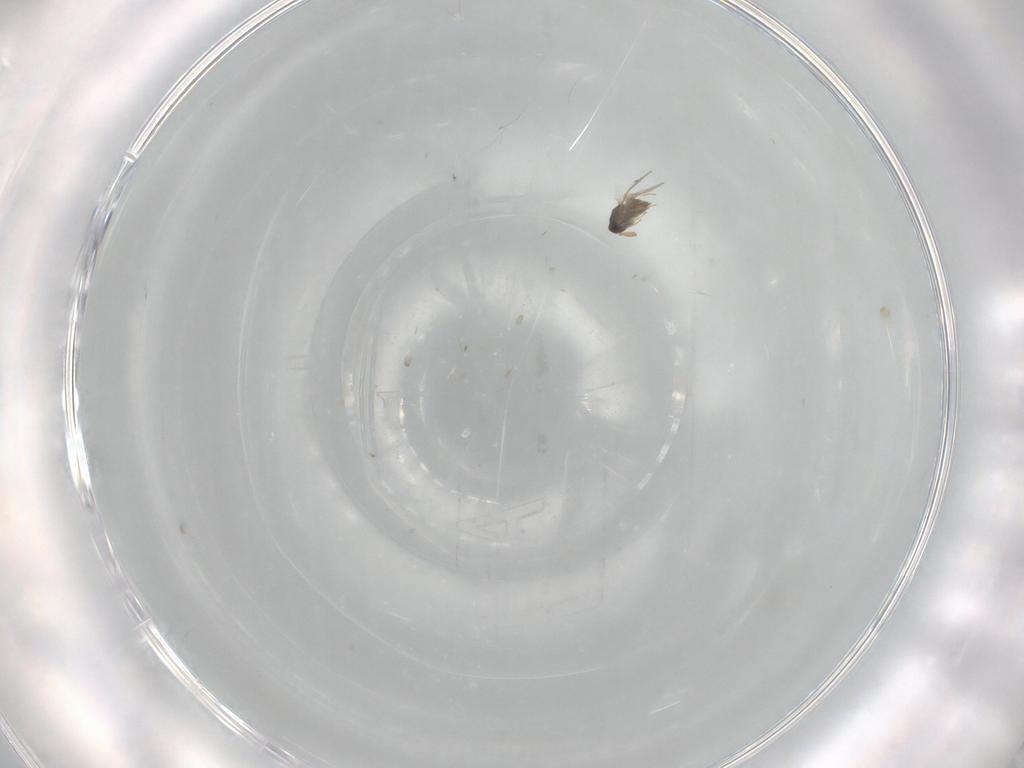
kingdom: Animalia
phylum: Arthropoda
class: Insecta
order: Hymenoptera
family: Encyrtidae
